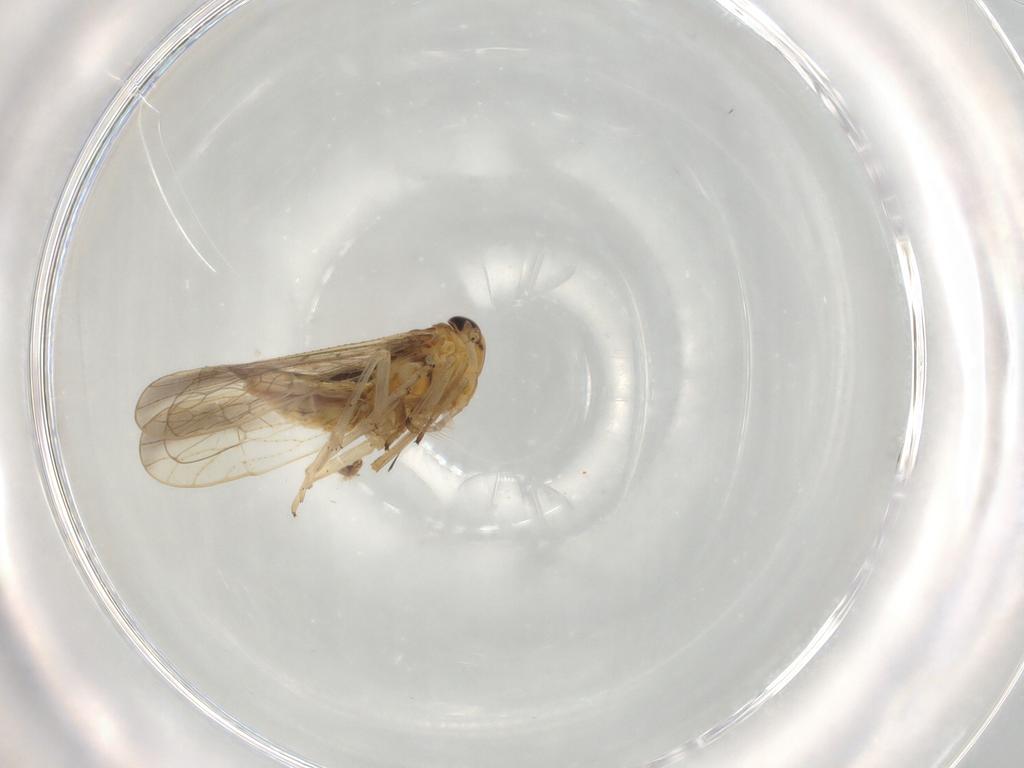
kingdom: Animalia
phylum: Arthropoda
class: Insecta
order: Hemiptera
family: Delphacidae
